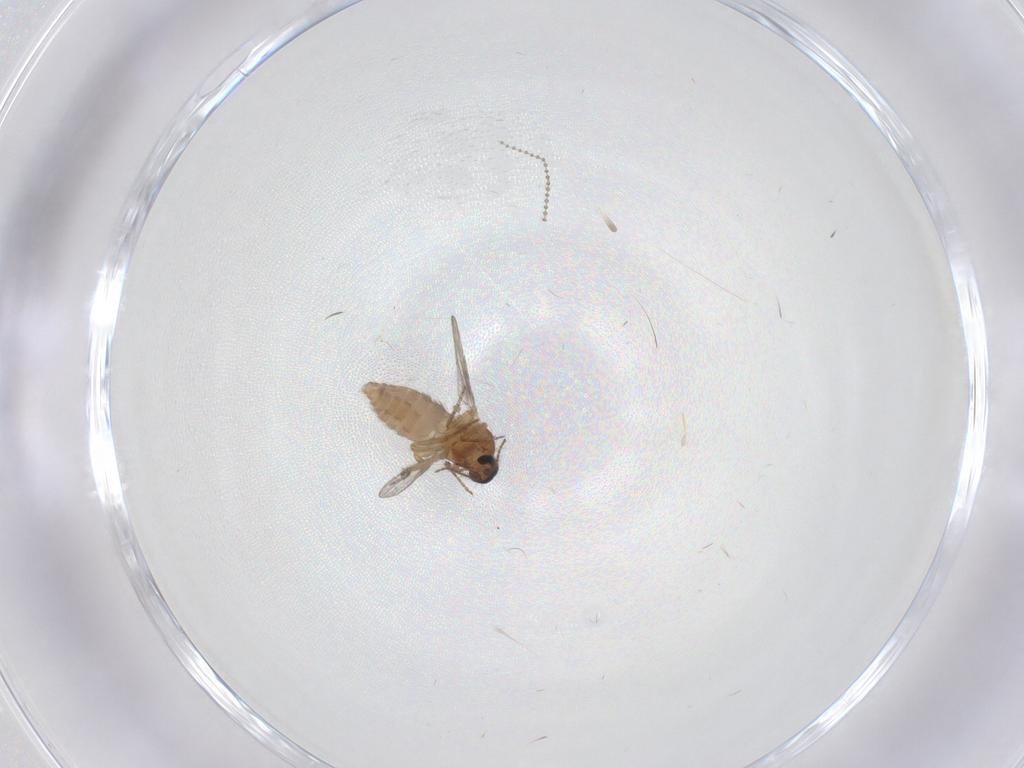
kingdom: Animalia
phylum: Arthropoda
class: Insecta
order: Diptera
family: Ceratopogonidae
